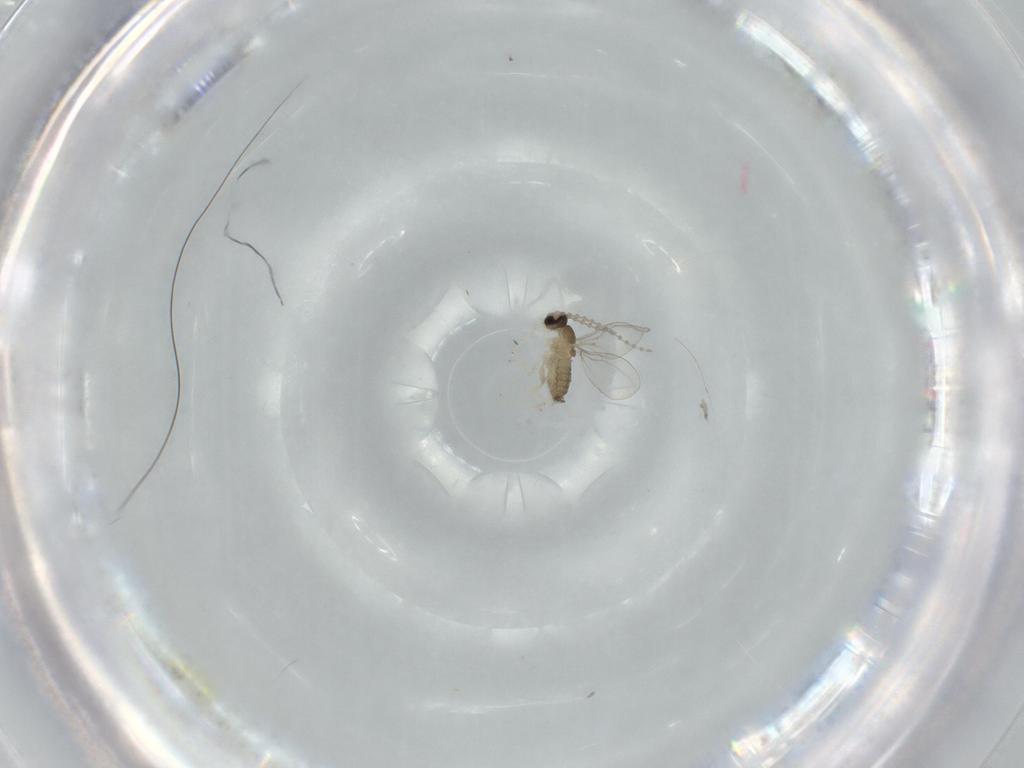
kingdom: Animalia
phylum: Arthropoda
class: Insecta
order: Diptera
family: Cecidomyiidae
